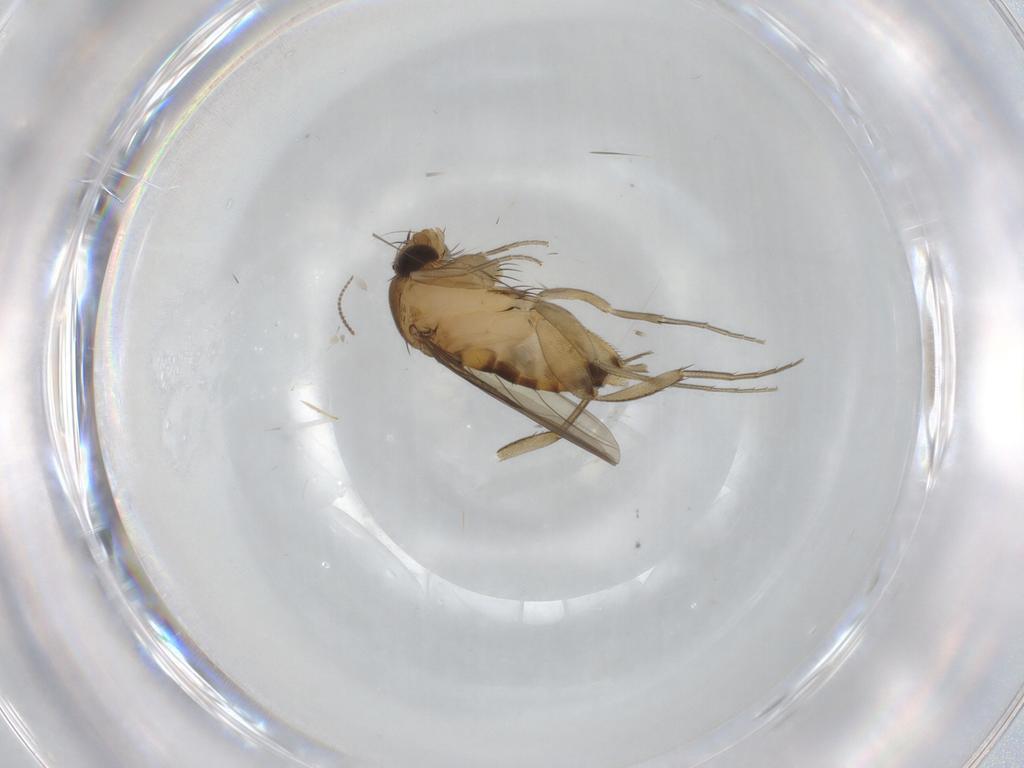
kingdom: Animalia
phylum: Arthropoda
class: Insecta
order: Diptera
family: Phoridae
